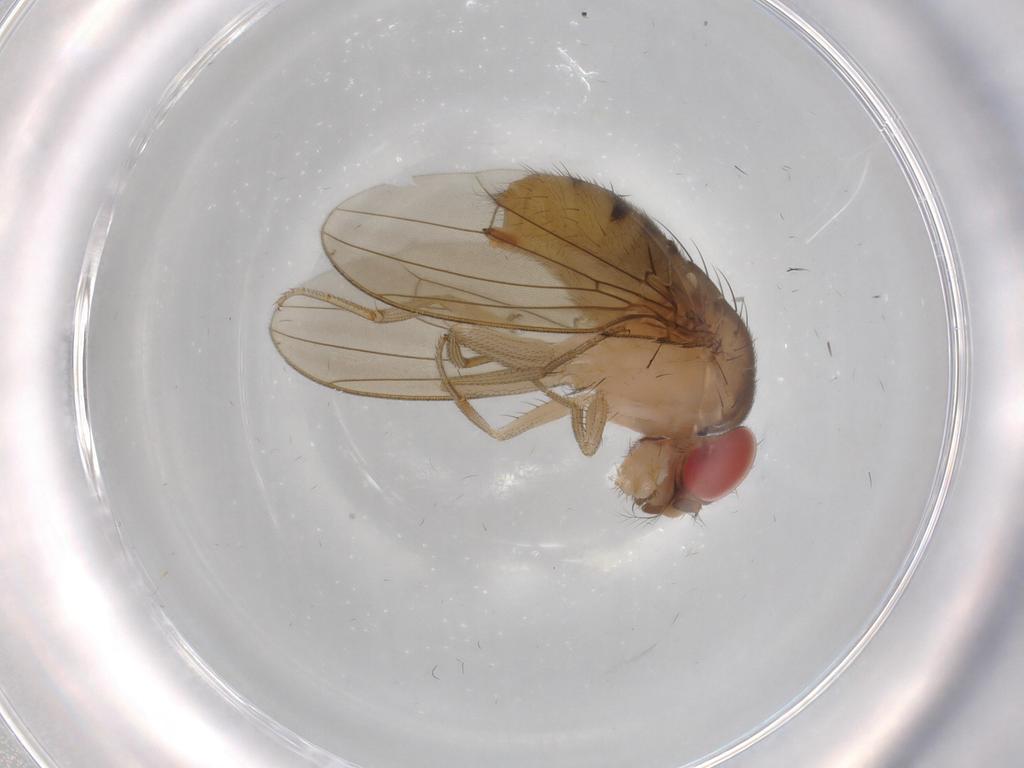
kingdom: Animalia
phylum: Arthropoda
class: Insecta
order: Diptera
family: Drosophilidae
